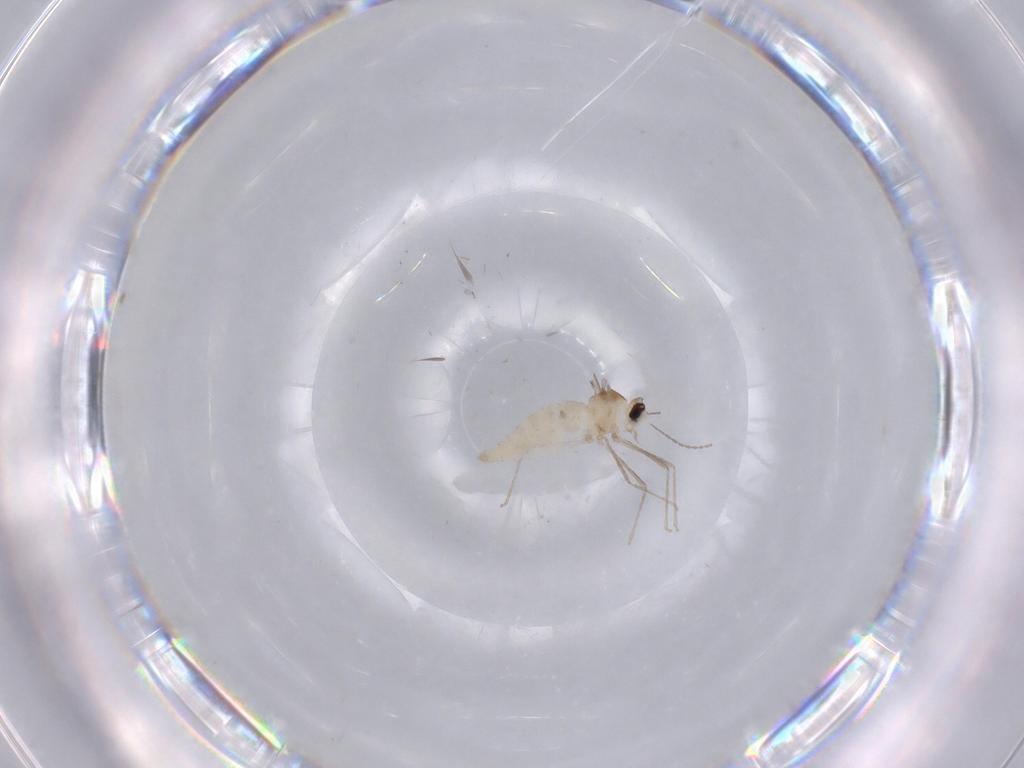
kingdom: Animalia
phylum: Arthropoda
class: Insecta
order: Diptera
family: Cecidomyiidae
